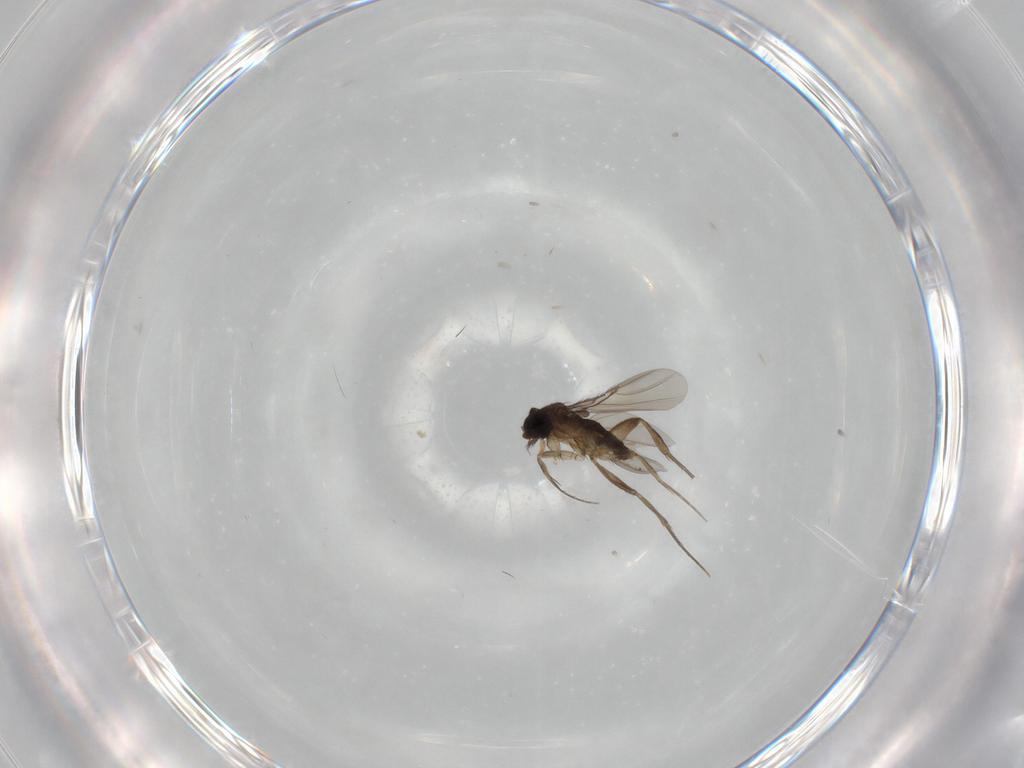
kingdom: Animalia
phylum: Arthropoda
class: Insecta
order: Diptera
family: Phoridae
